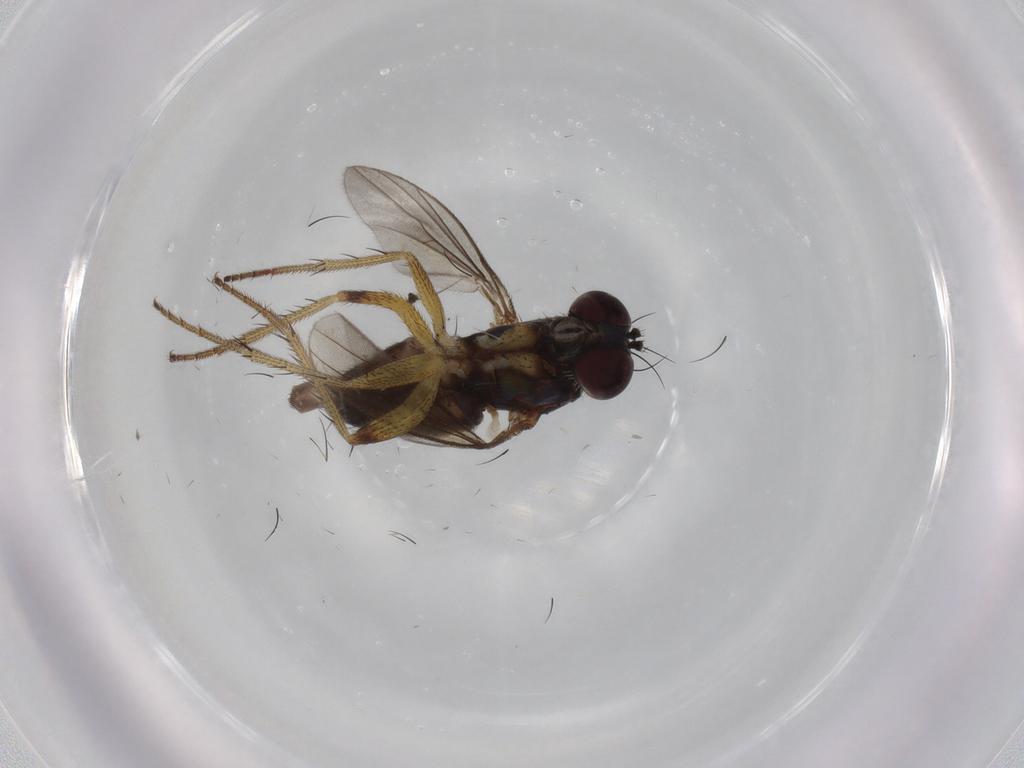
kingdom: Animalia
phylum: Arthropoda
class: Insecta
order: Diptera
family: Dolichopodidae
